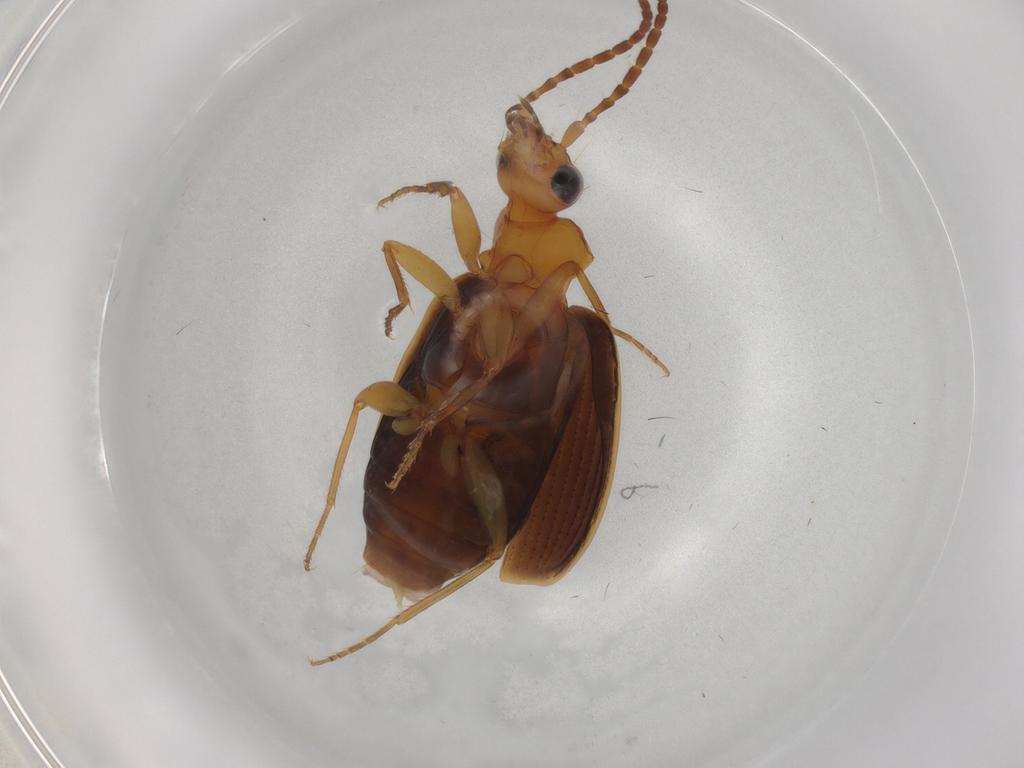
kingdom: Animalia
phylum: Arthropoda
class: Insecta
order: Coleoptera
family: Carabidae
